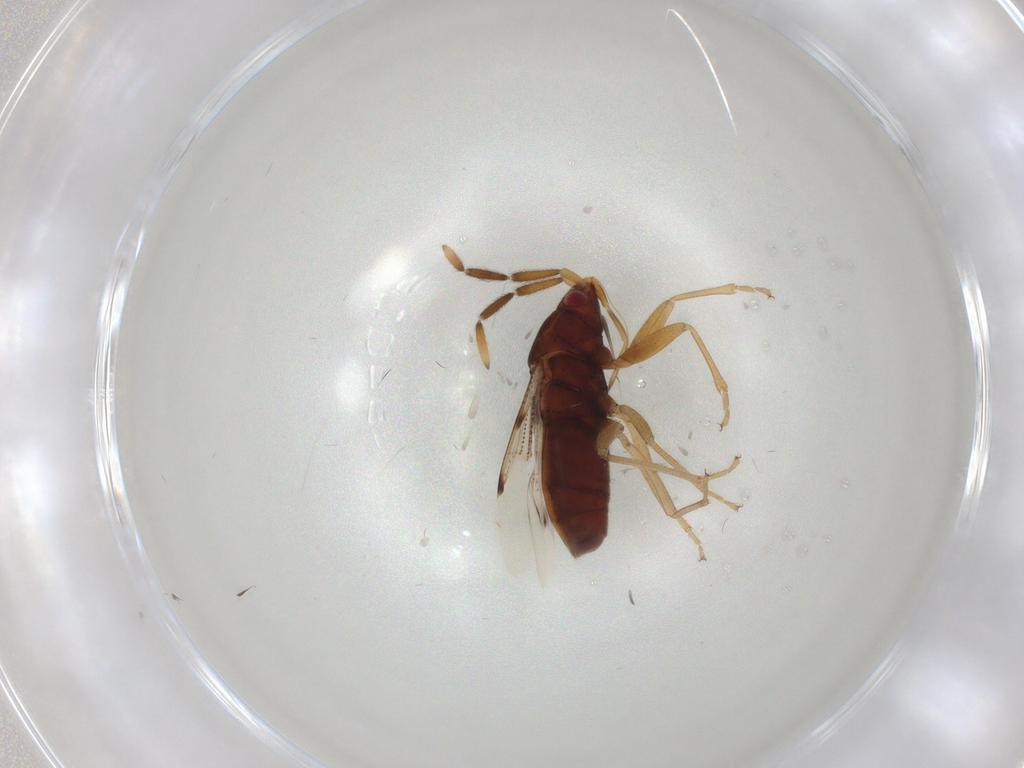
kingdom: Animalia
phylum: Arthropoda
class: Insecta
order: Hemiptera
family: Rhyparochromidae
